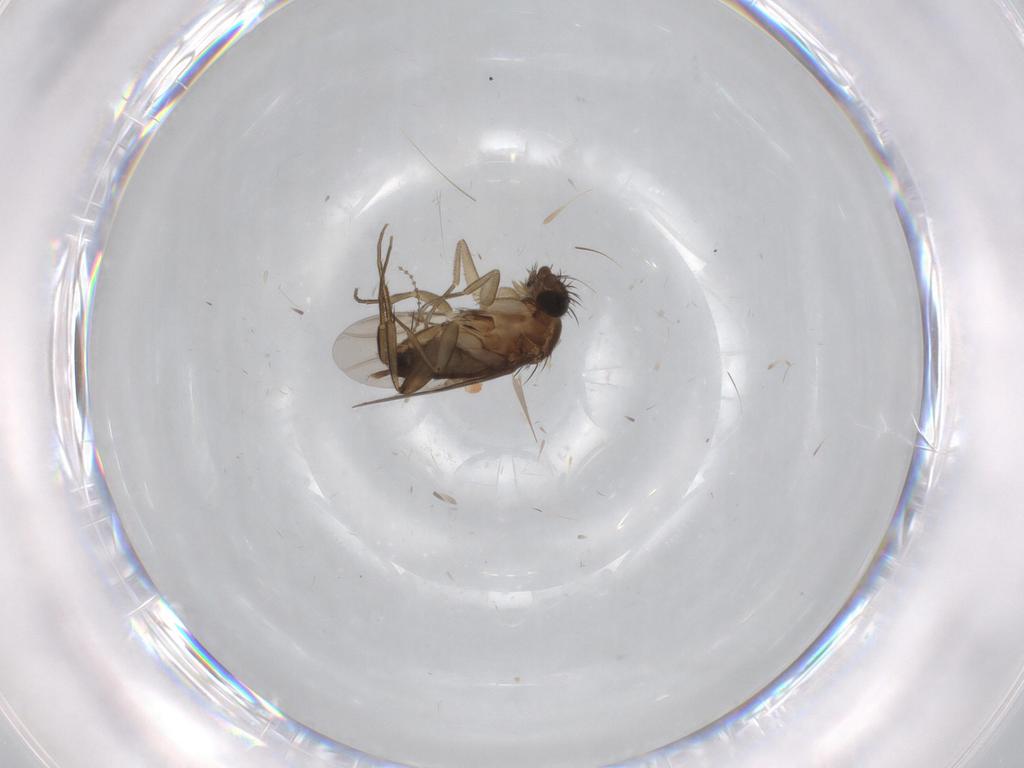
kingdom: Animalia
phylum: Arthropoda
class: Insecta
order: Diptera
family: Phoridae
